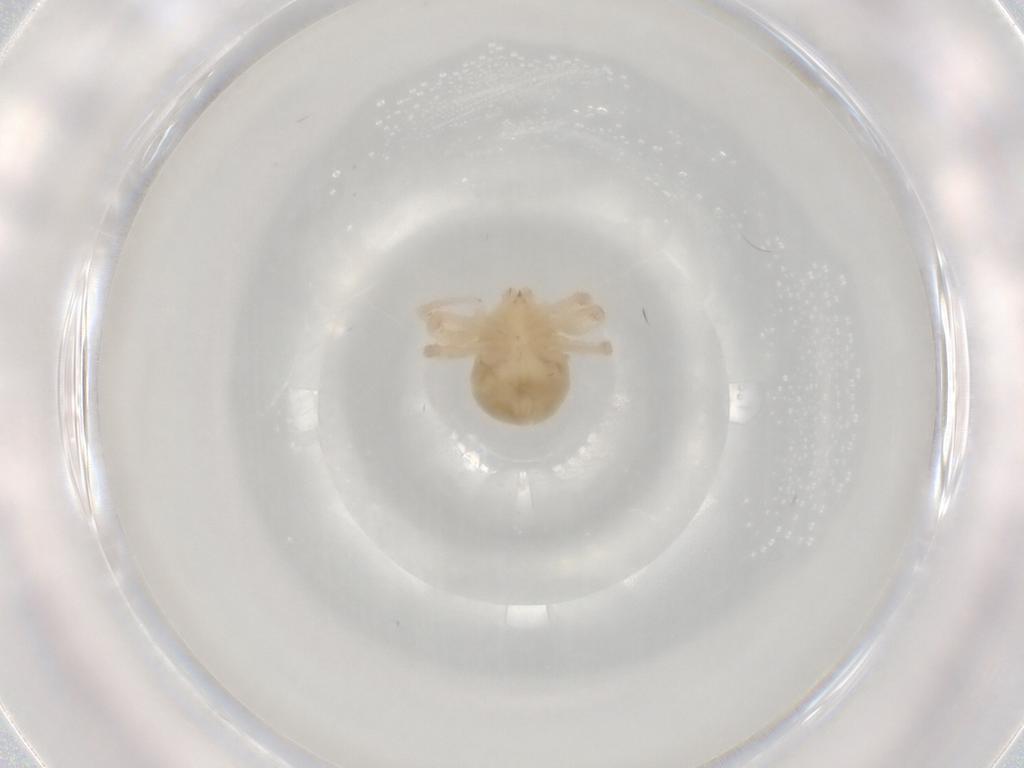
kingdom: Animalia
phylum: Arthropoda
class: Arachnida
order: Trombidiformes
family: Anystidae
